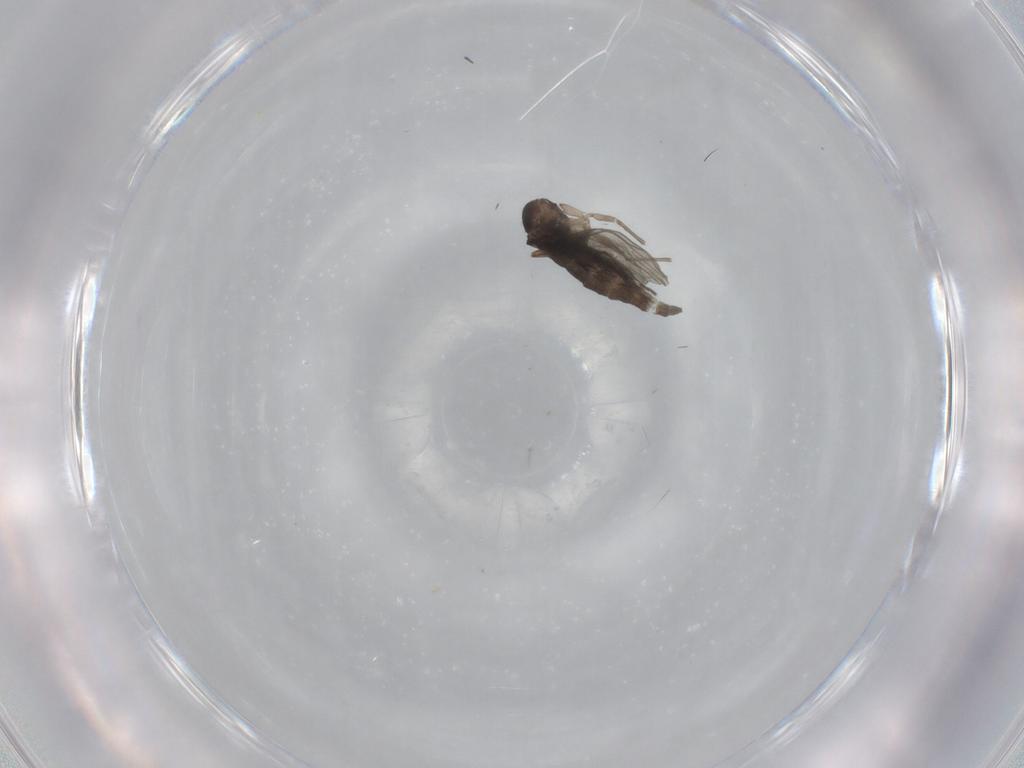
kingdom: Animalia
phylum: Arthropoda
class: Insecta
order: Diptera
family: Sciaridae
